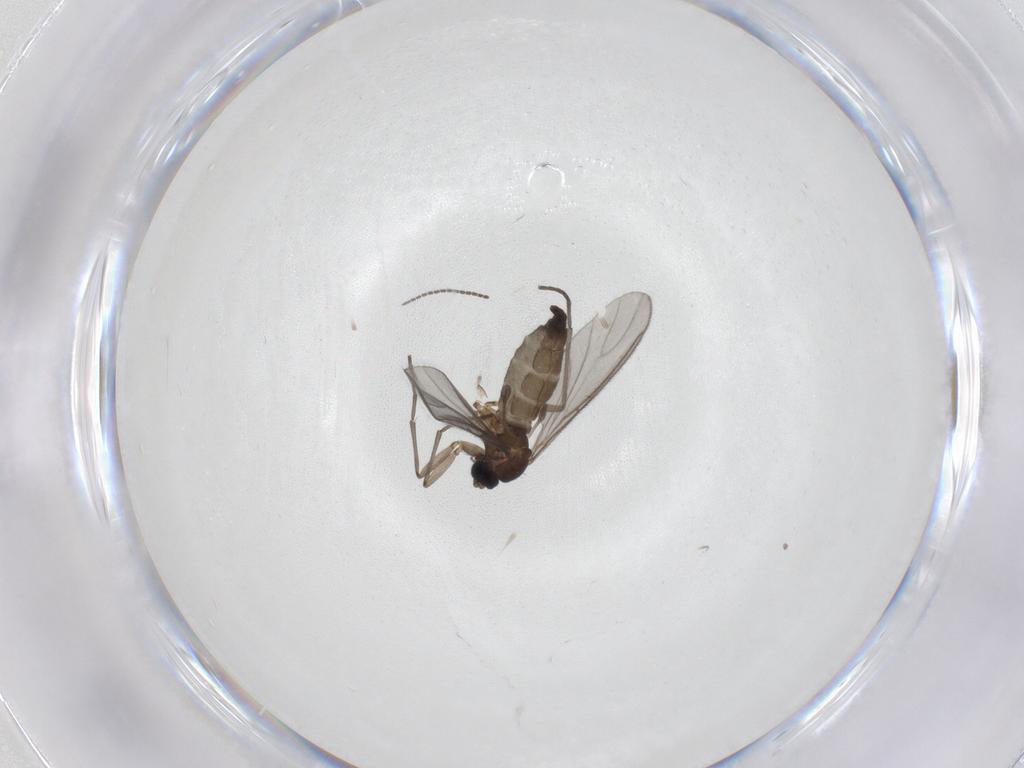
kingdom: Animalia
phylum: Arthropoda
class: Insecta
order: Diptera
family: Sciaridae
